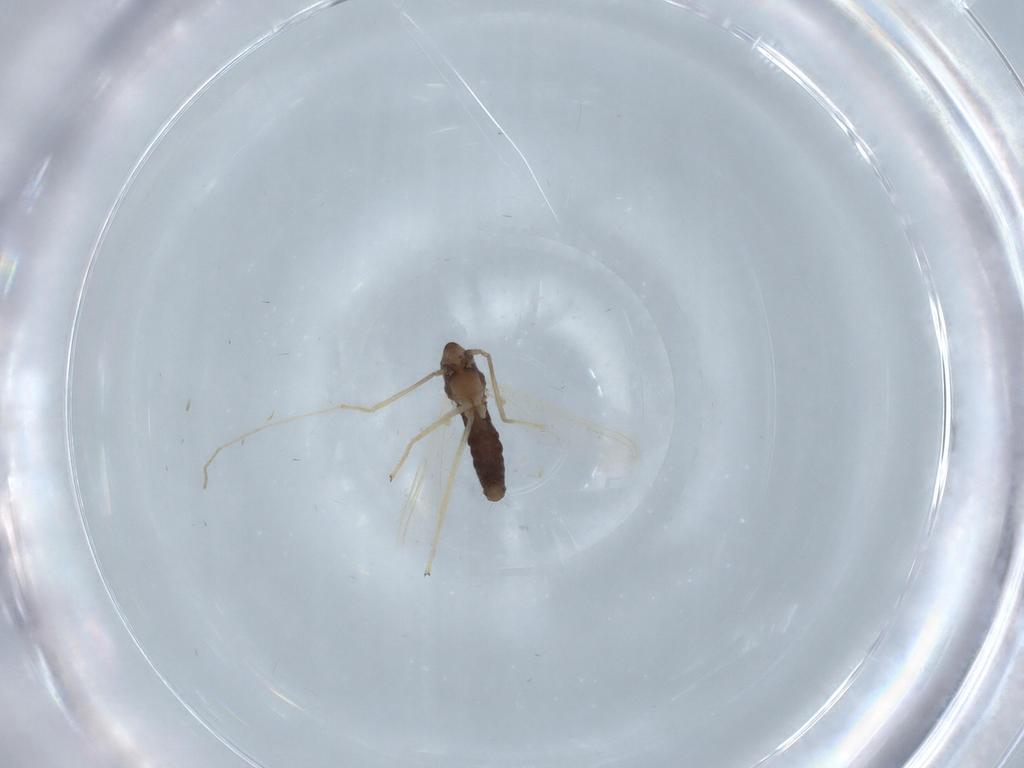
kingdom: Animalia
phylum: Arthropoda
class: Insecta
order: Diptera
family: Chironomidae
